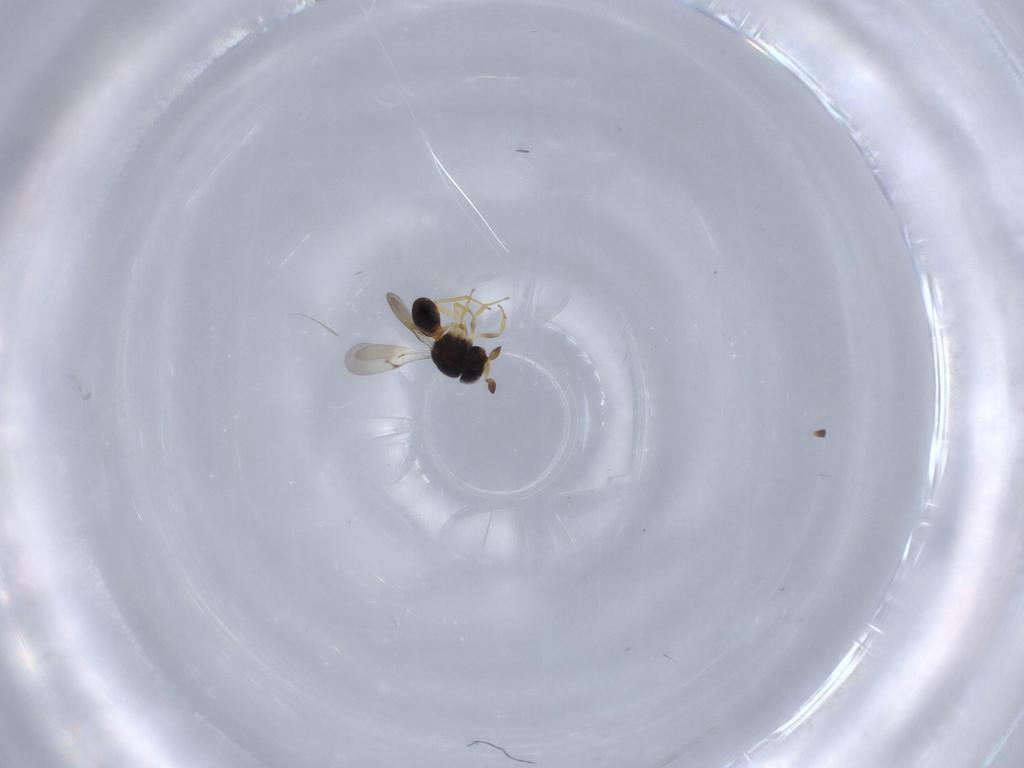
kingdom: Animalia
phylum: Arthropoda
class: Insecta
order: Hymenoptera
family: Scelionidae
